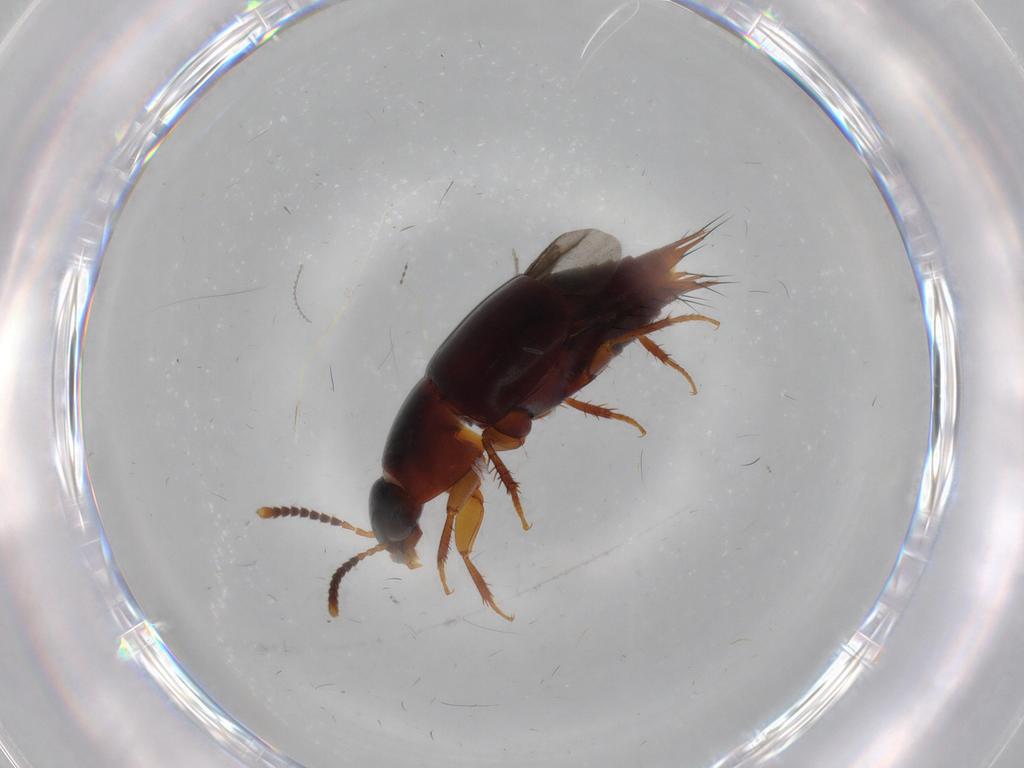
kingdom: Animalia
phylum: Arthropoda
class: Insecta
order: Coleoptera
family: Staphylinidae
